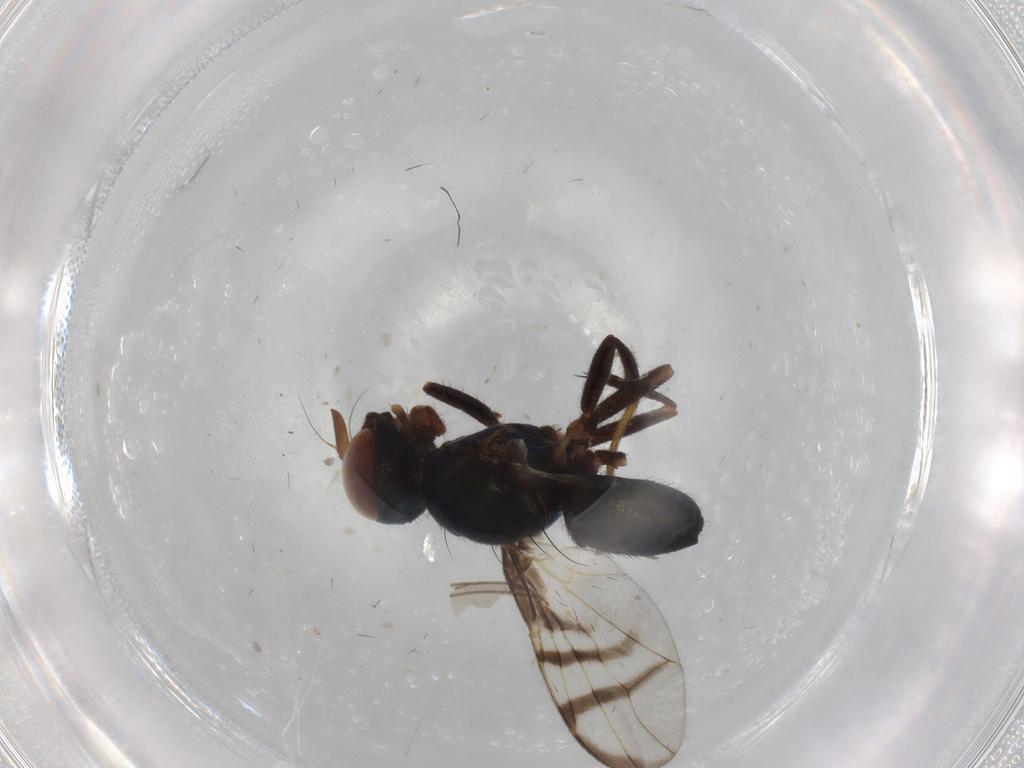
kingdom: Animalia
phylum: Arthropoda
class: Insecta
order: Diptera
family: Sciaridae
